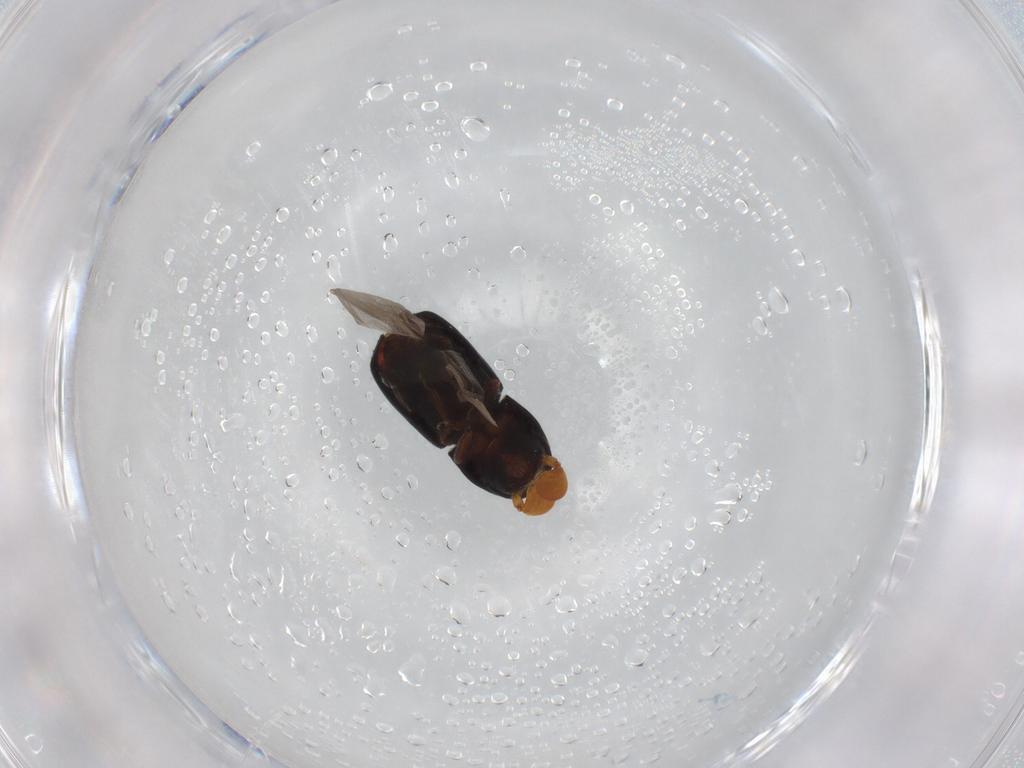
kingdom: Animalia
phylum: Arthropoda
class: Insecta
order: Coleoptera
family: Curculionidae
